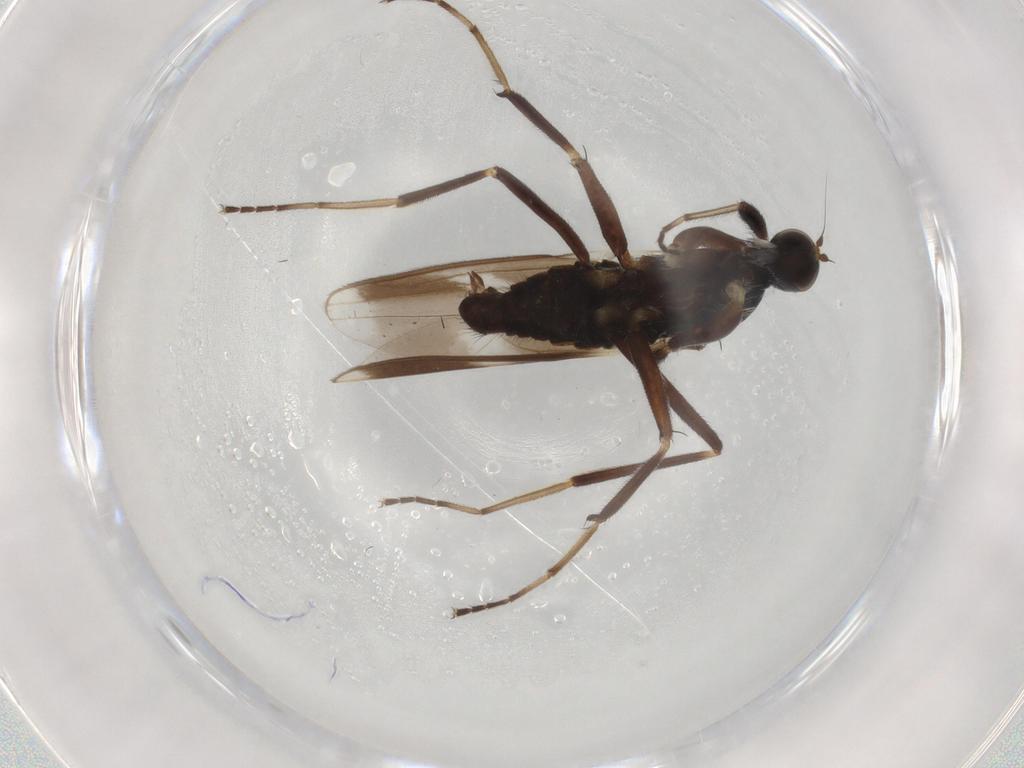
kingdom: Animalia
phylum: Arthropoda
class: Insecta
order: Diptera
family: Hybotidae
